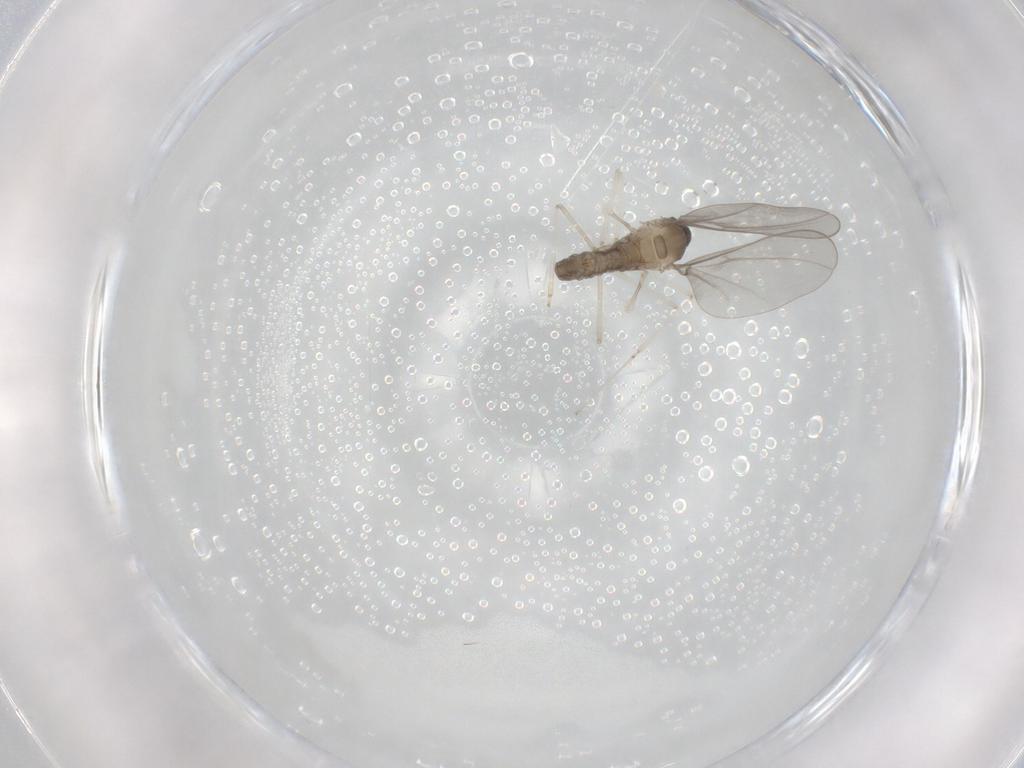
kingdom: Animalia
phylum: Arthropoda
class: Insecta
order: Diptera
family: Cecidomyiidae
